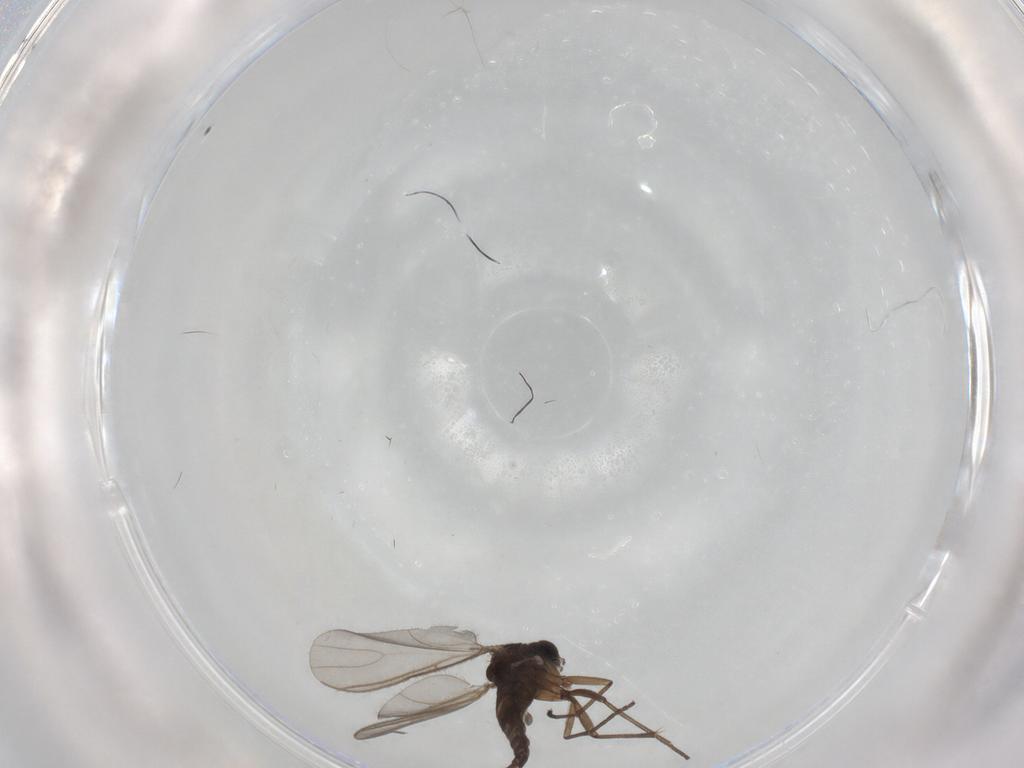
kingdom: Animalia
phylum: Arthropoda
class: Insecta
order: Diptera
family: Sciaridae
